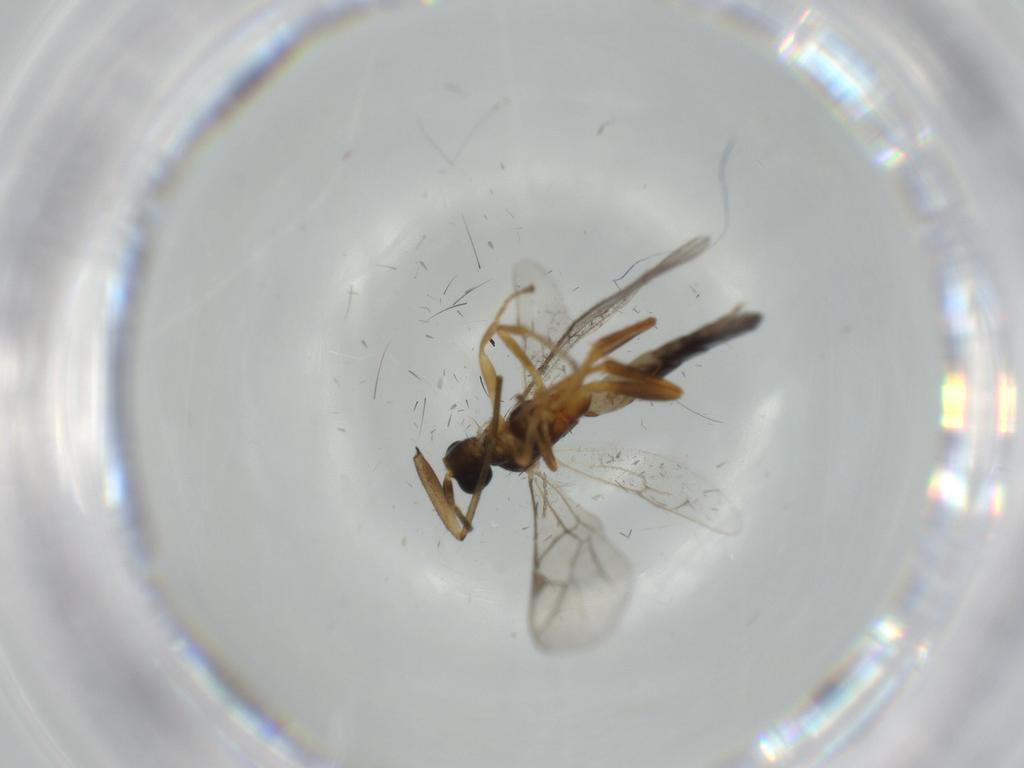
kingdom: Animalia
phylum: Arthropoda
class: Insecta
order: Hymenoptera
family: Ichneumonidae
